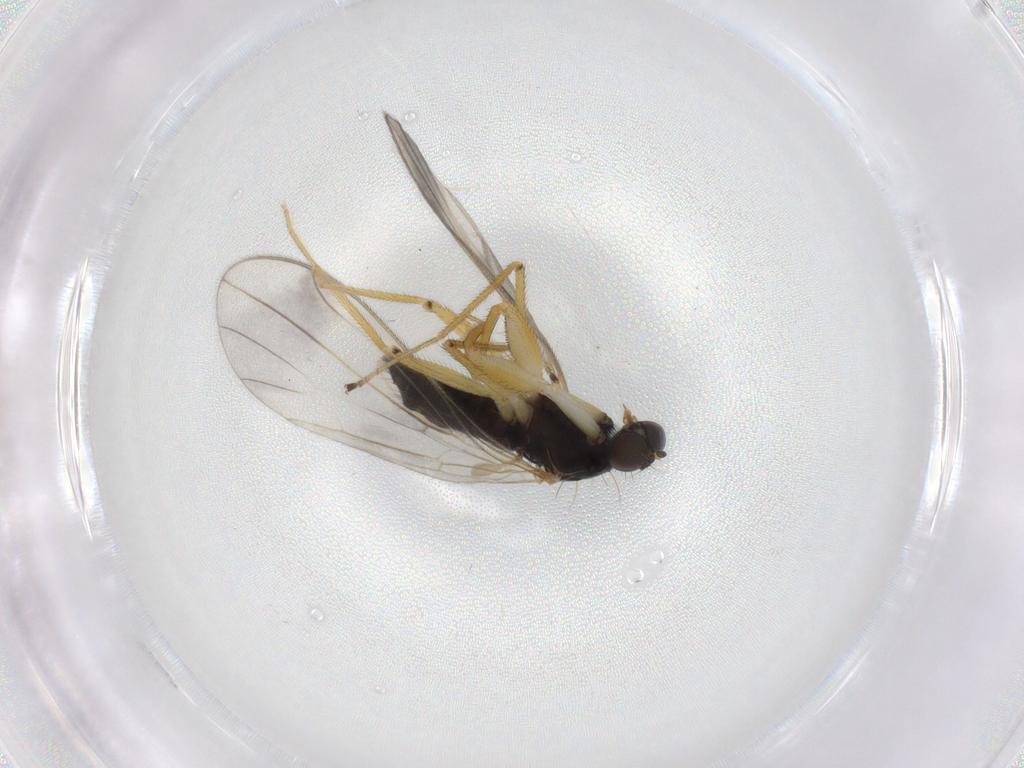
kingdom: Animalia
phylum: Arthropoda
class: Insecta
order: Diptera
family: Empididae
